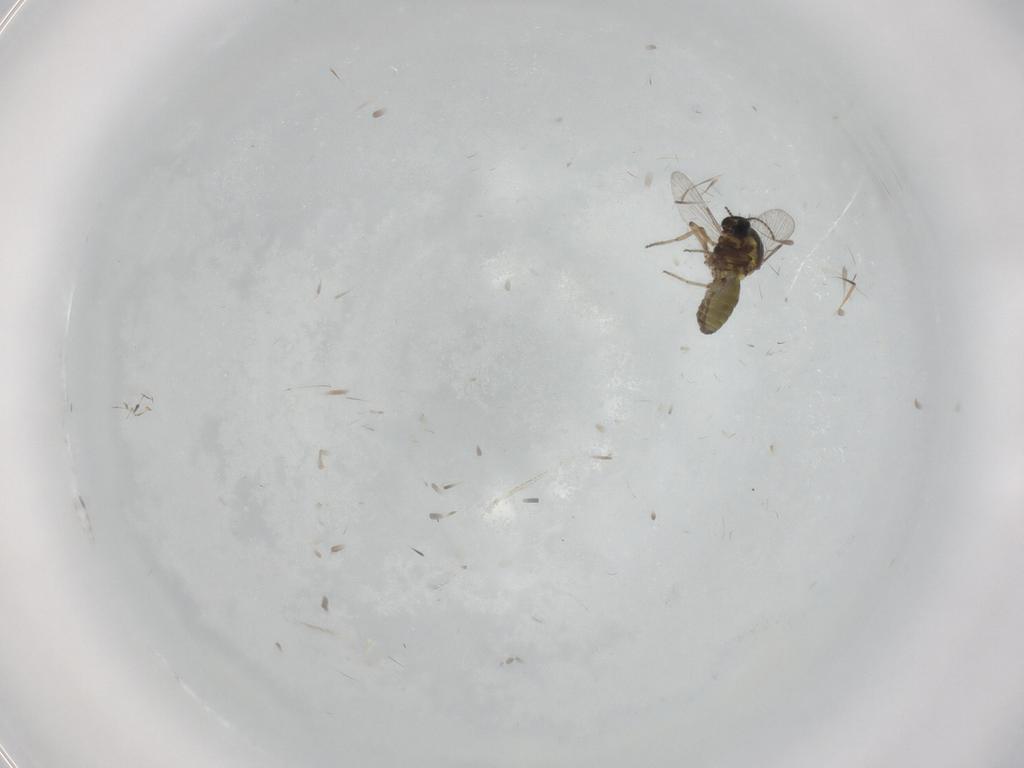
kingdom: Animalia
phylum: Arthropoda
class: Insecta
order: Diptera
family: Ceratopogonidae
